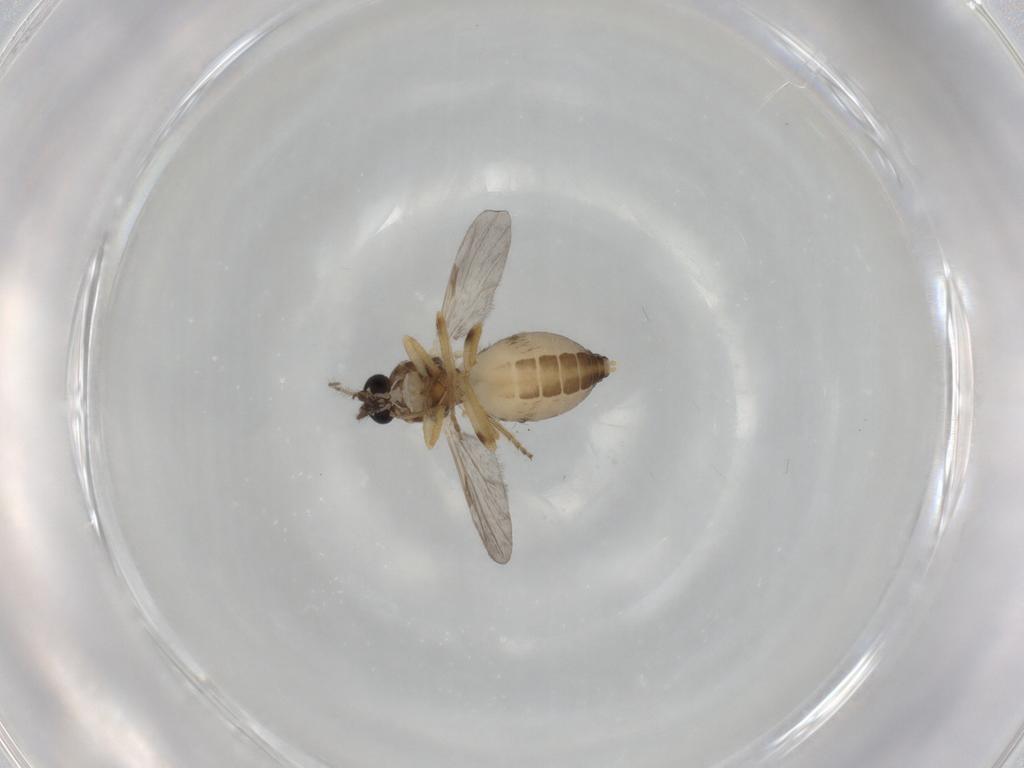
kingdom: Animalia
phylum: Arthropoda
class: Insecta
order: Diptera
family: Ceratopogonidae
